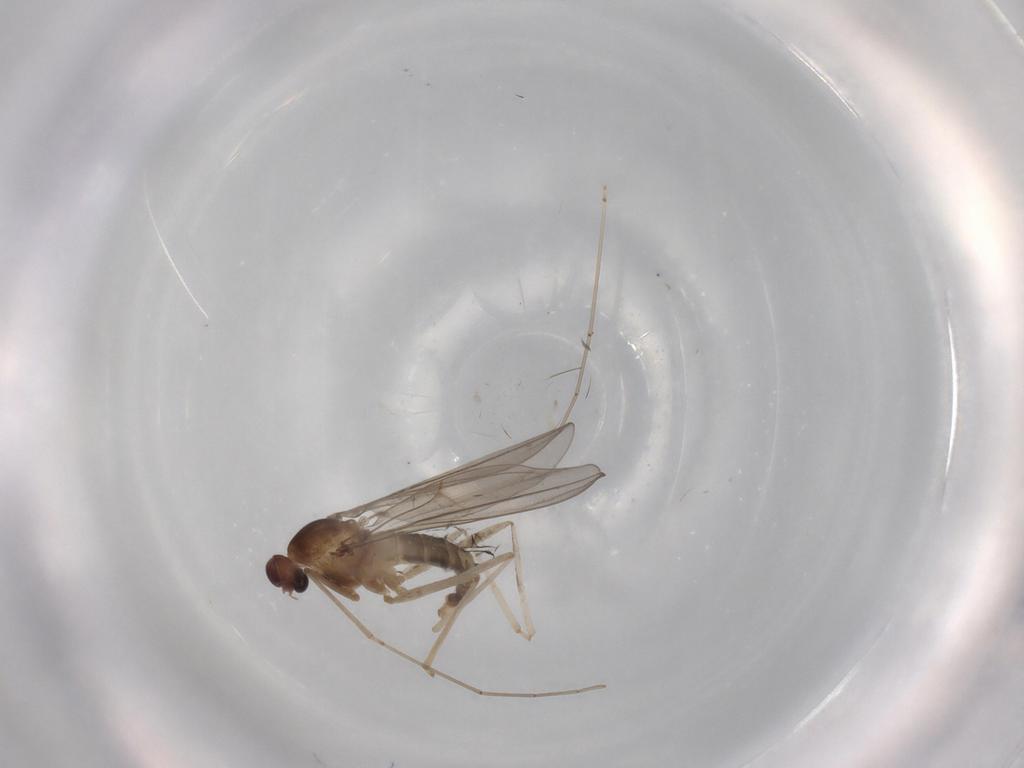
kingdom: Animalia
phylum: Arthropoda
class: Insecta
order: Diptera
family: Cecidomyiidae
